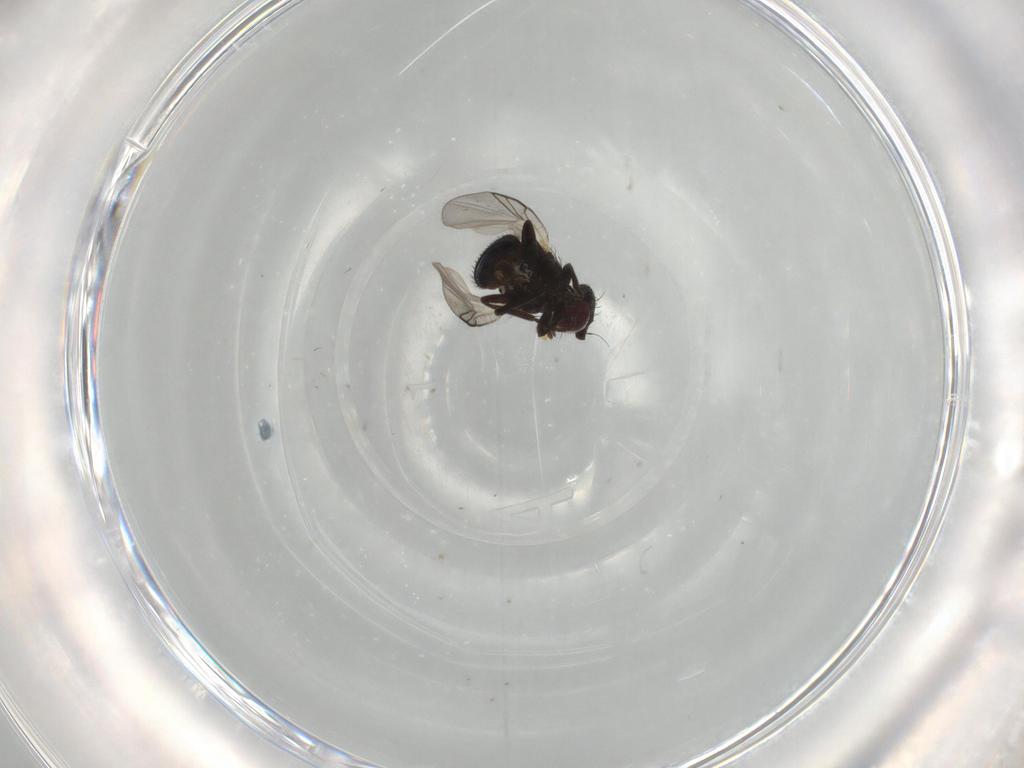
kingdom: Animalia
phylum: Arthropoda
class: Insecta
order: Diptera
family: Agromyzidae
